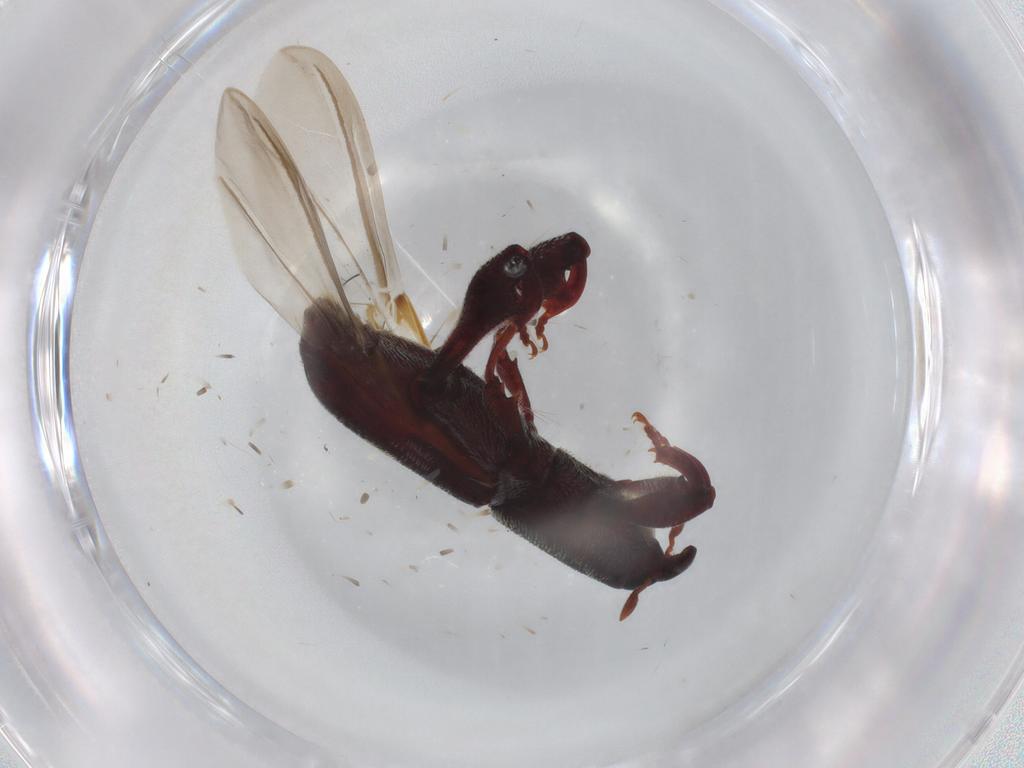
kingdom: Animalia
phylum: Arthropoda
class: Insecta
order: Coleoptera
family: Curculionidae
